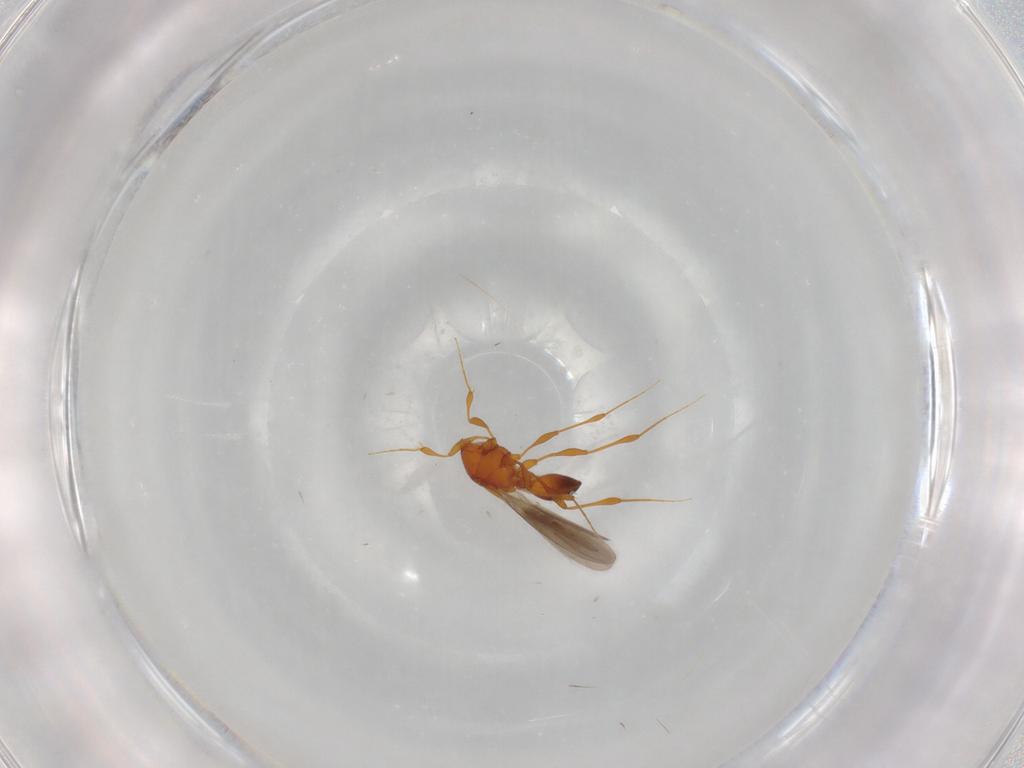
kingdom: Animalia
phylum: Arthropoda
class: Insecta
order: Hymenoptera
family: Platygastridae
